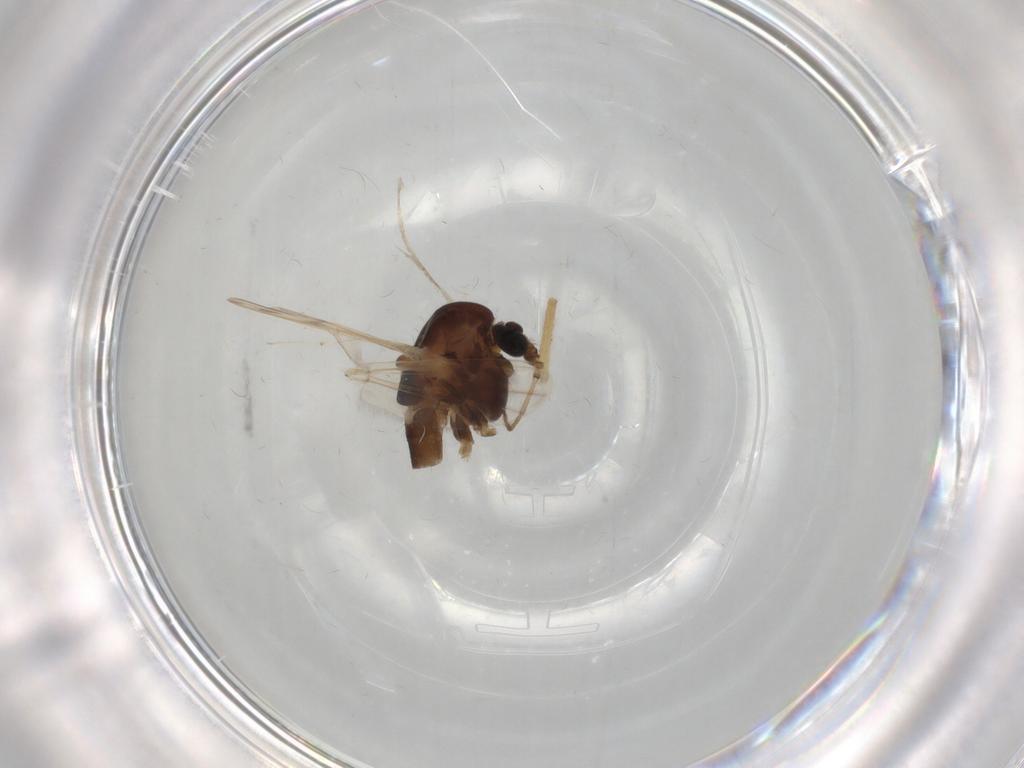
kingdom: Animalia
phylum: Arthropoda
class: Insecta
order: Diptera
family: Chironomidae
